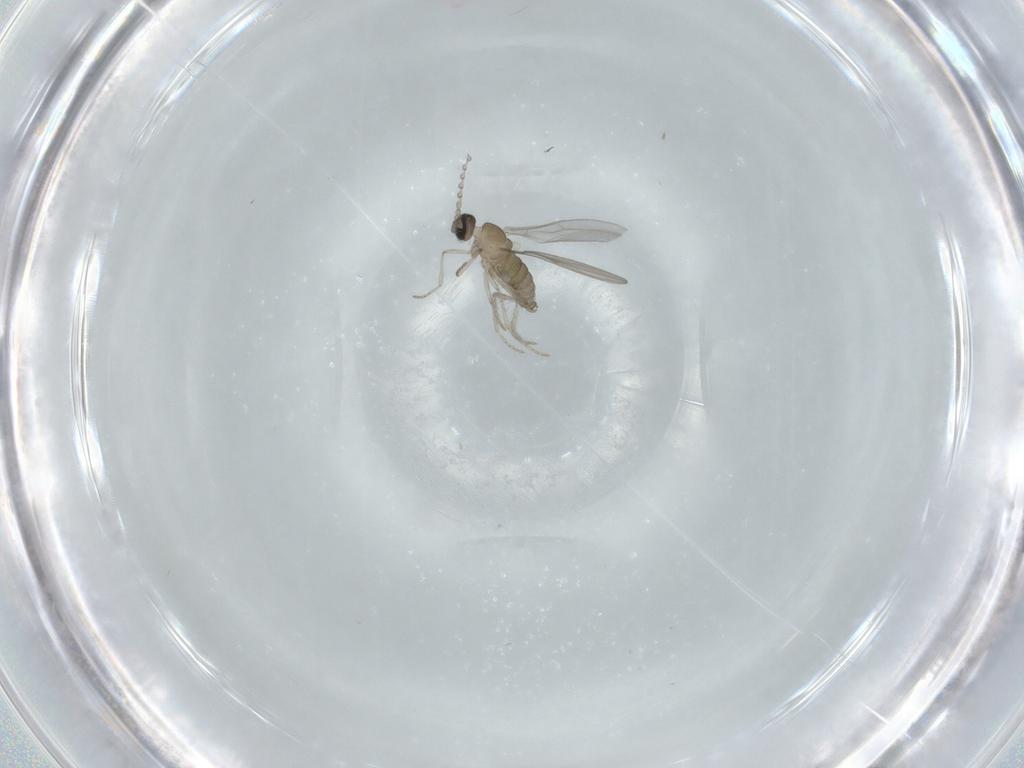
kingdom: Animalia
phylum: Arthropoda
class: Insecta
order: Diptera
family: Cecidomyiidae
